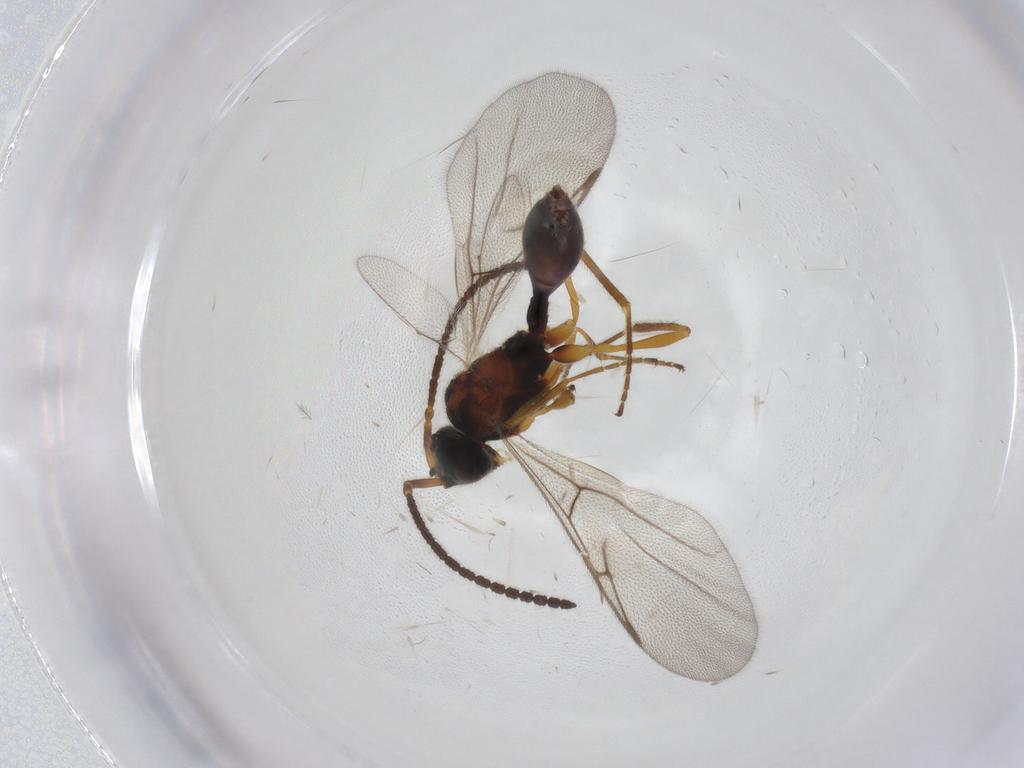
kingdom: Animalia
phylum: Arthropoda
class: Insecta
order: Hymenoptera
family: Diapriidae
